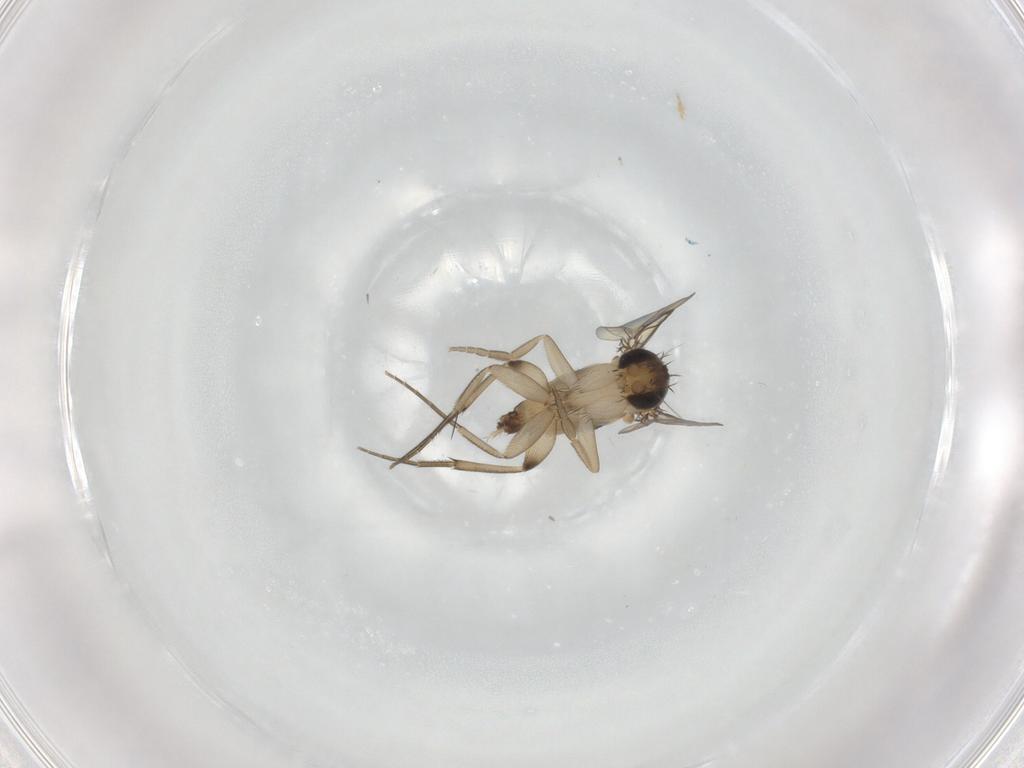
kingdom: Animalia
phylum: Arthropoda
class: Insecta
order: Diptera
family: Phoridae
